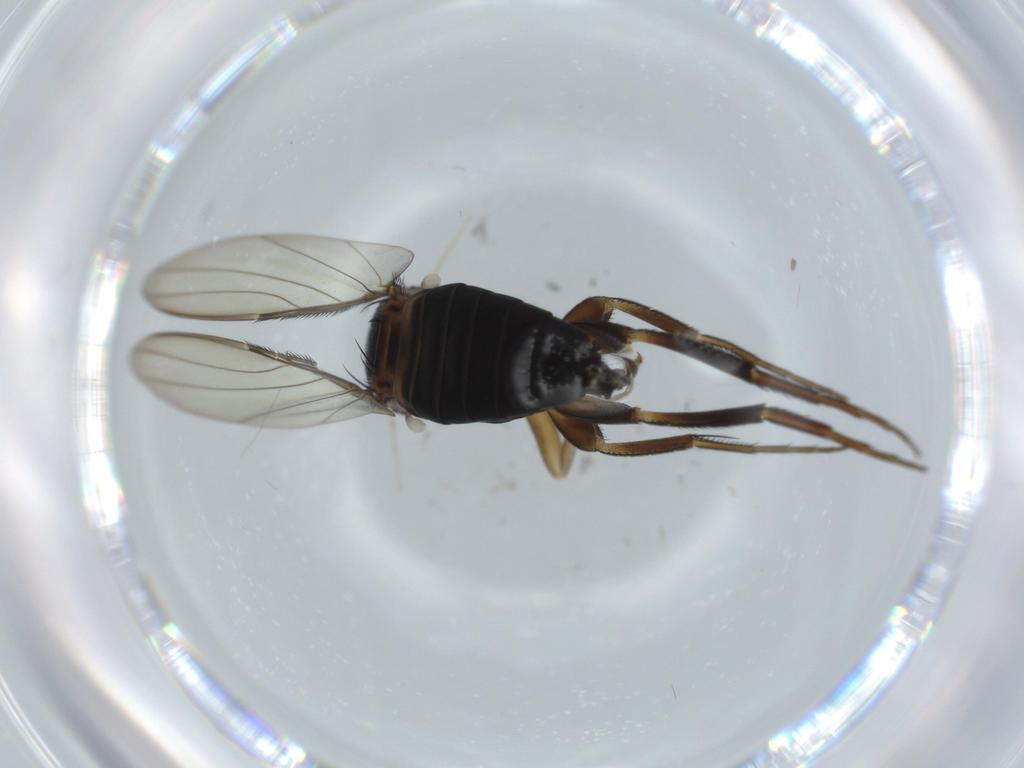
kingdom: Animalia
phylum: Arthropoda
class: Insecta
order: Diptera
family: Phoridae
